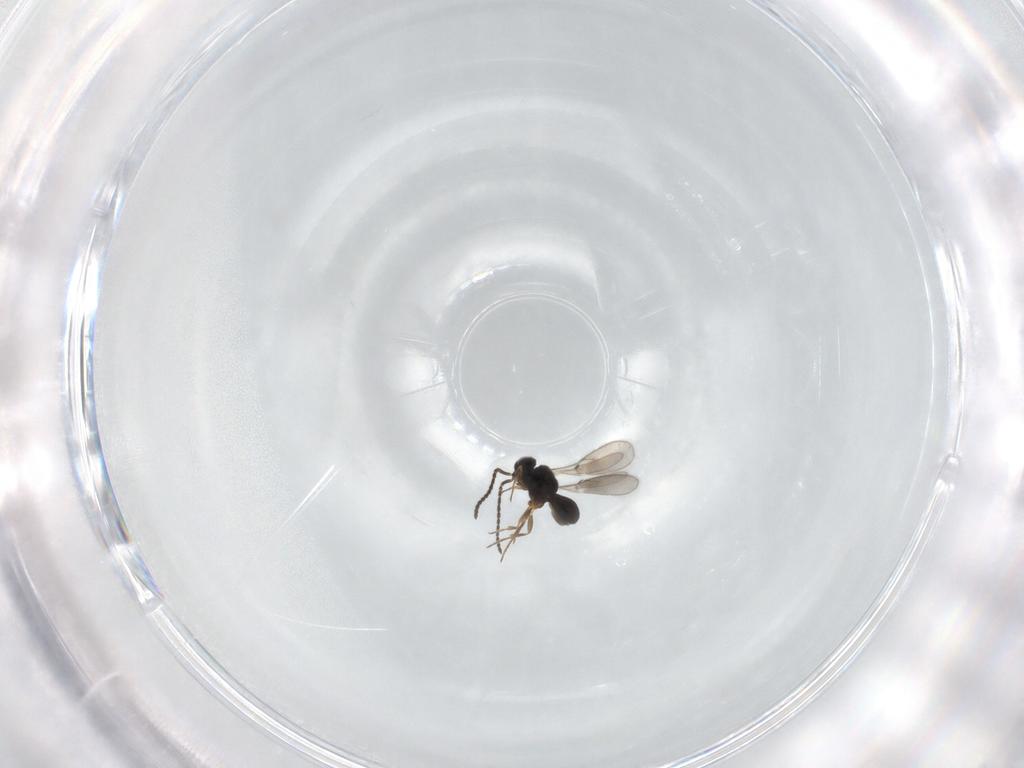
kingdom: Animalia
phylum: Arthropoda
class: Insecta
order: Hymenoptera
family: Scelionidae
